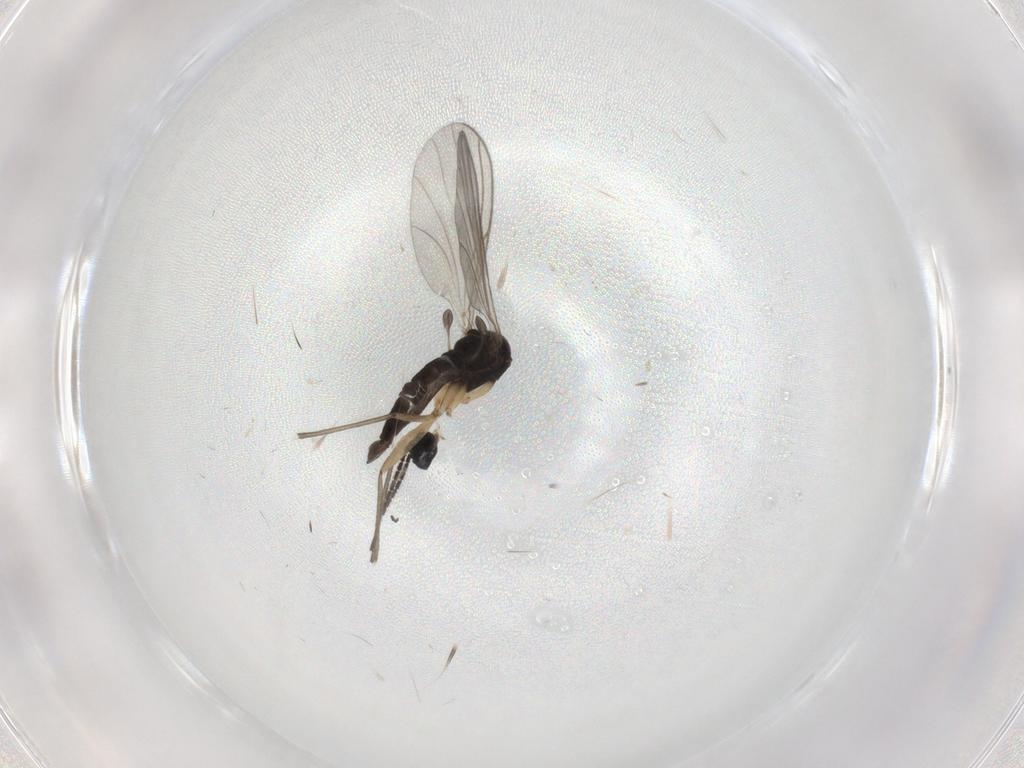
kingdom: Animalia
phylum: Arthropoda
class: Insecta
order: Diptera
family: Sciaridae
